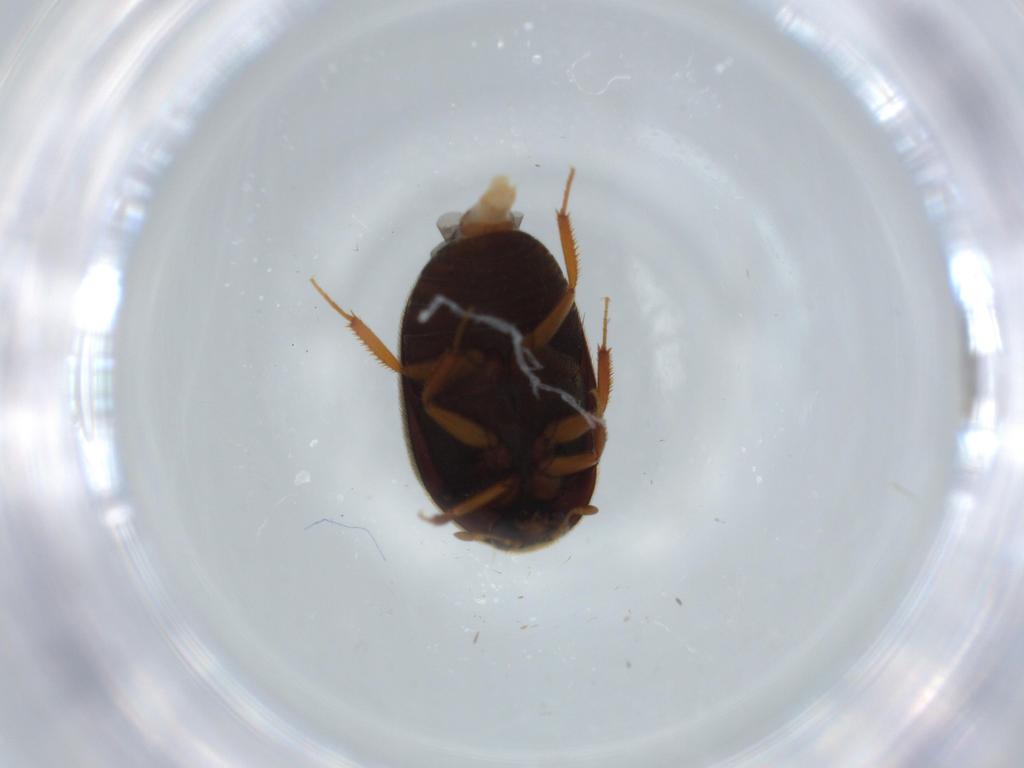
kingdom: Animalia
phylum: Arthropoda
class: Insecta
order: Coleoptera
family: Dermestidae
